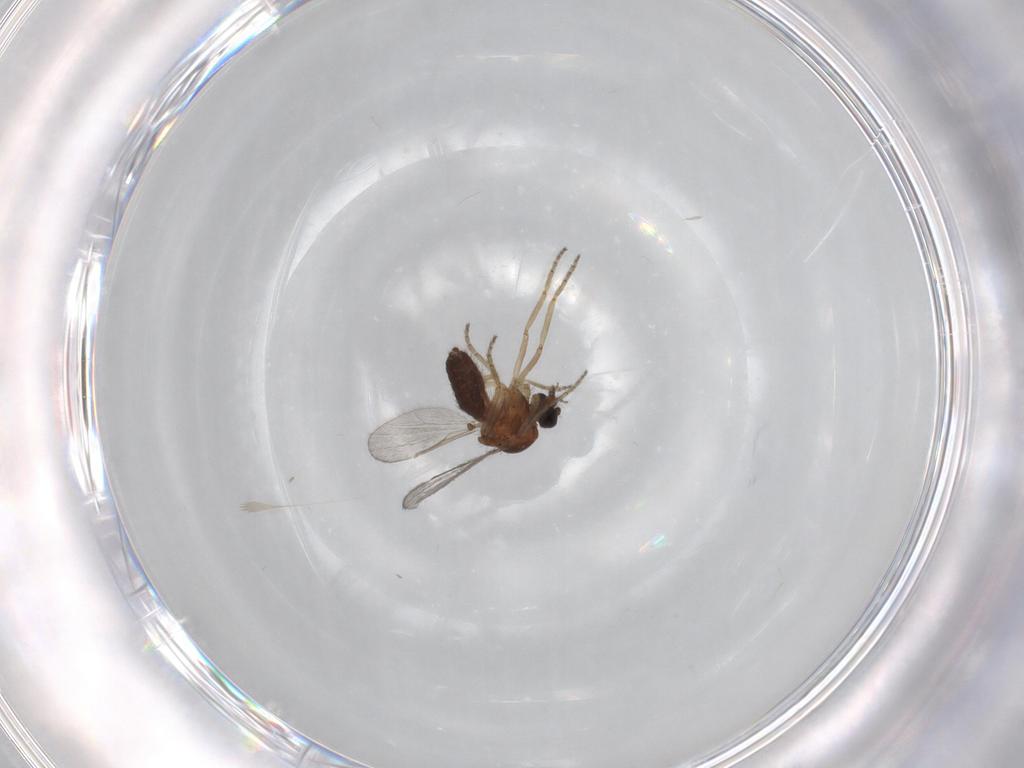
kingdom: Animalia
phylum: Arthropoda
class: Insecta
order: Diptera
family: Ceratopogonidae
